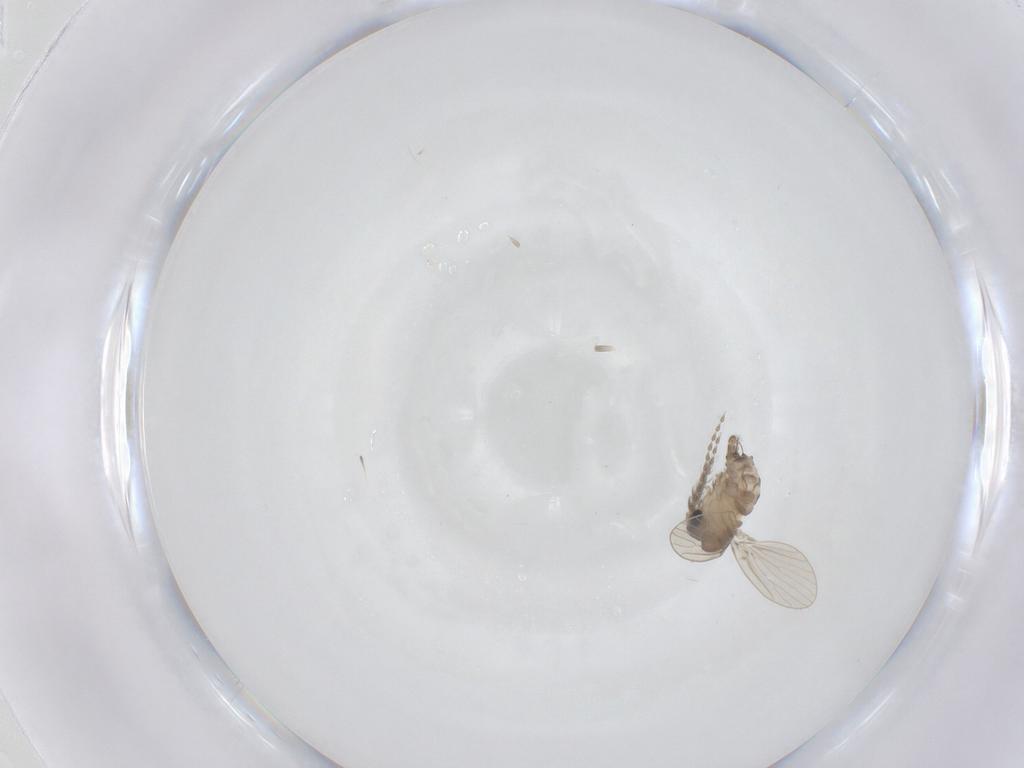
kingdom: Animalia
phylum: Arthropoda
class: Insecta
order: Diptera
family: Psychodidae
